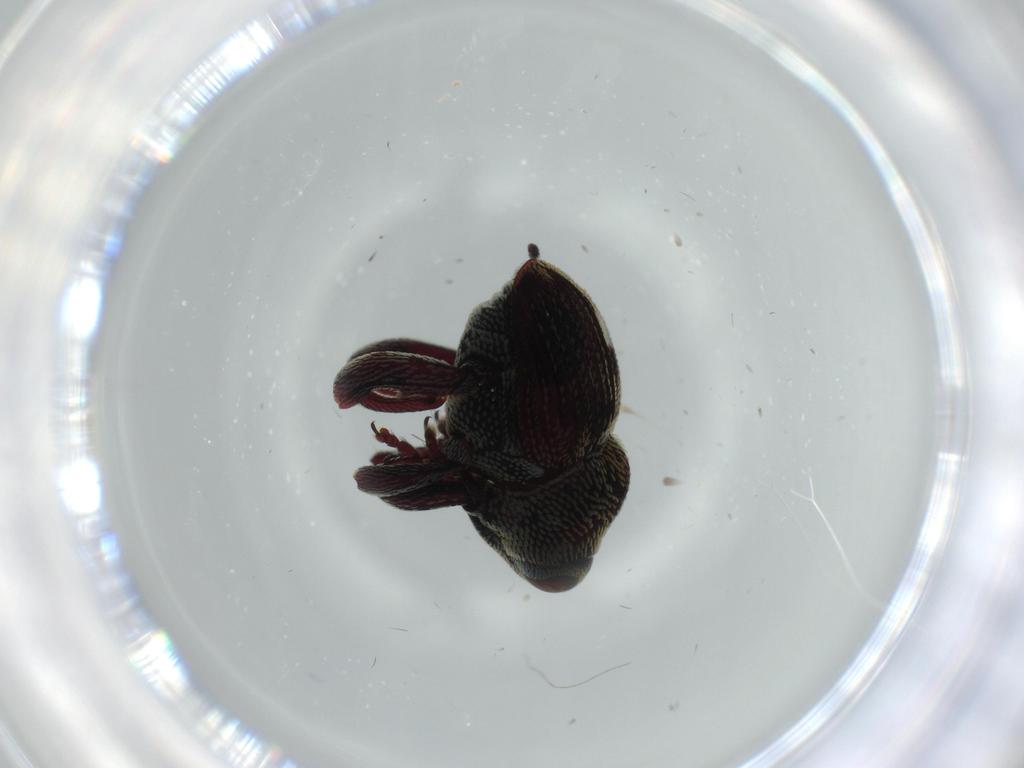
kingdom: Animalia
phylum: Arthropoda
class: Insecta
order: Coleoptera
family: Curculionidae
